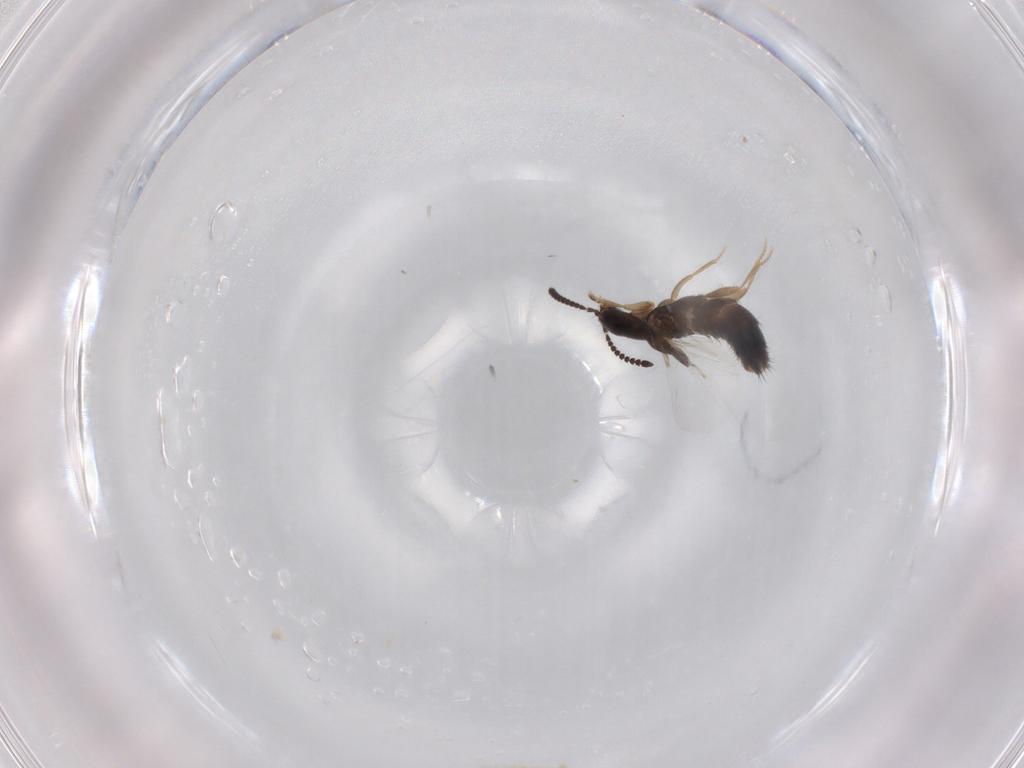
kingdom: Animalia
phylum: Arthropoda
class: Insecta
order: Coleoptera
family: Staphylinidae
